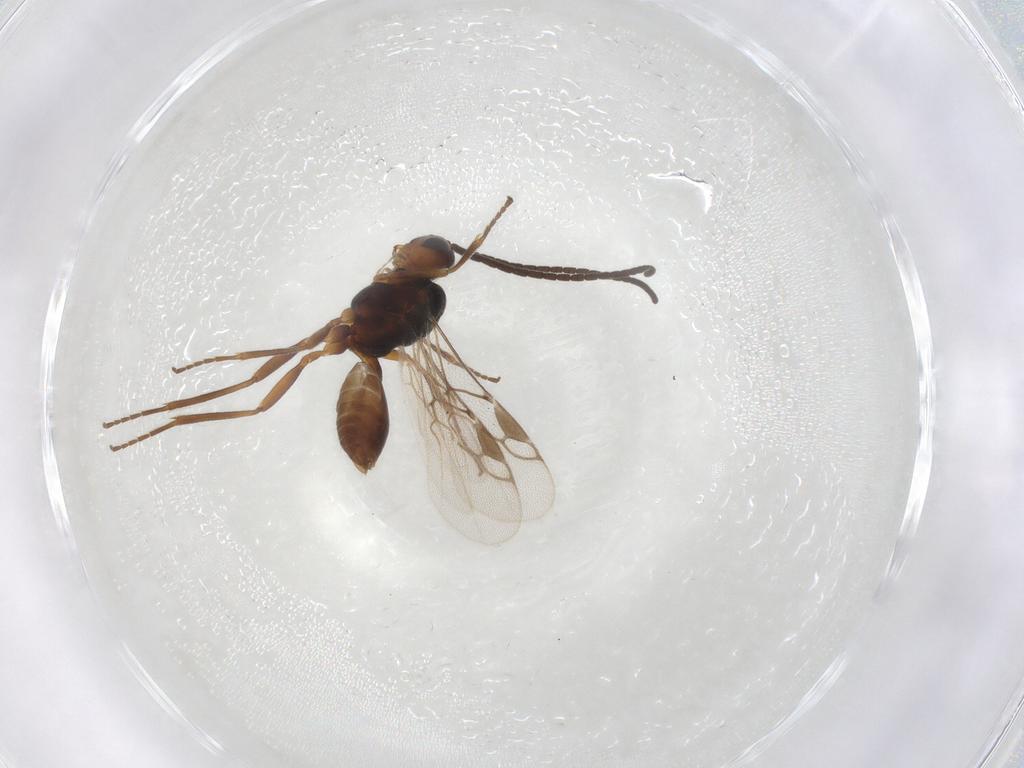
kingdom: Animalia
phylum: Arthropoda
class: Insecta
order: Hymenoptera
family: Braconidae
